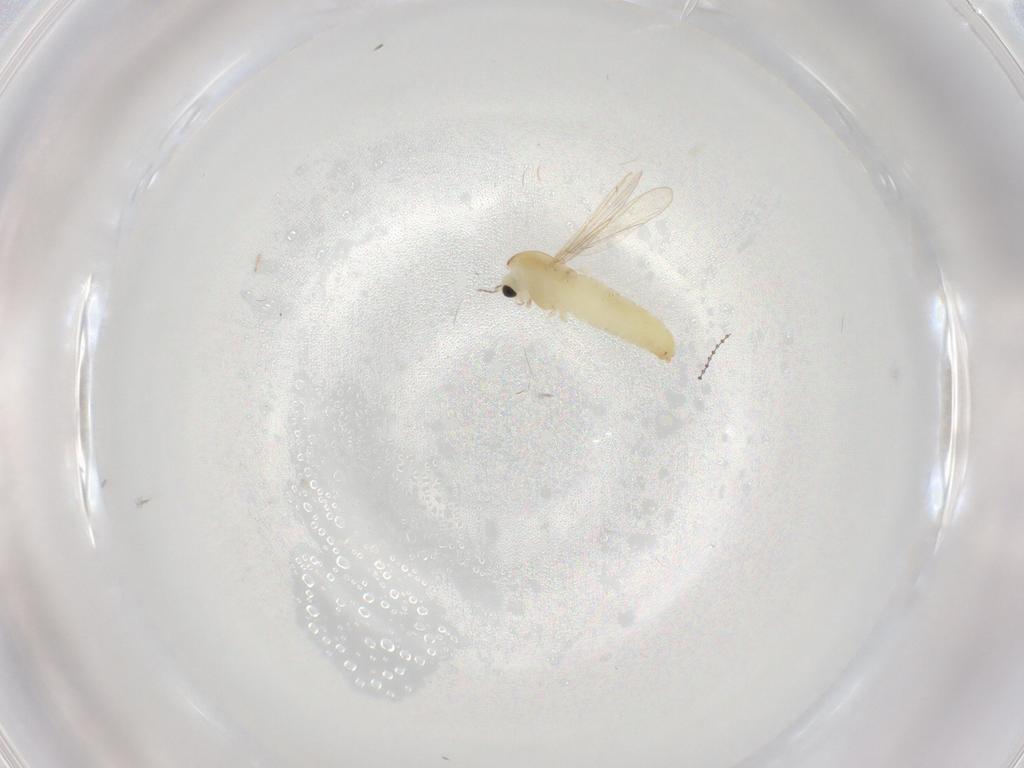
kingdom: Animalia
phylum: Arthropoda
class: Insecta
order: Diptera
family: Chironomidae
